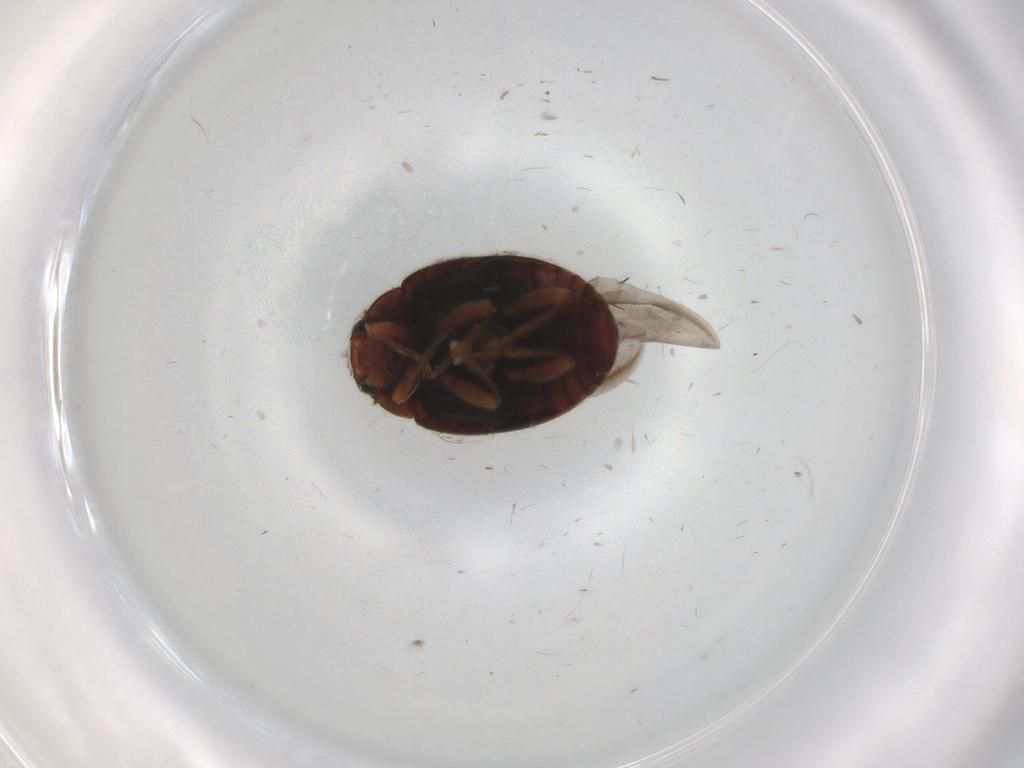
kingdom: Animalia
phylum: Arthropoda
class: Insecta
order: Coleoptera
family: Coccinellidae
